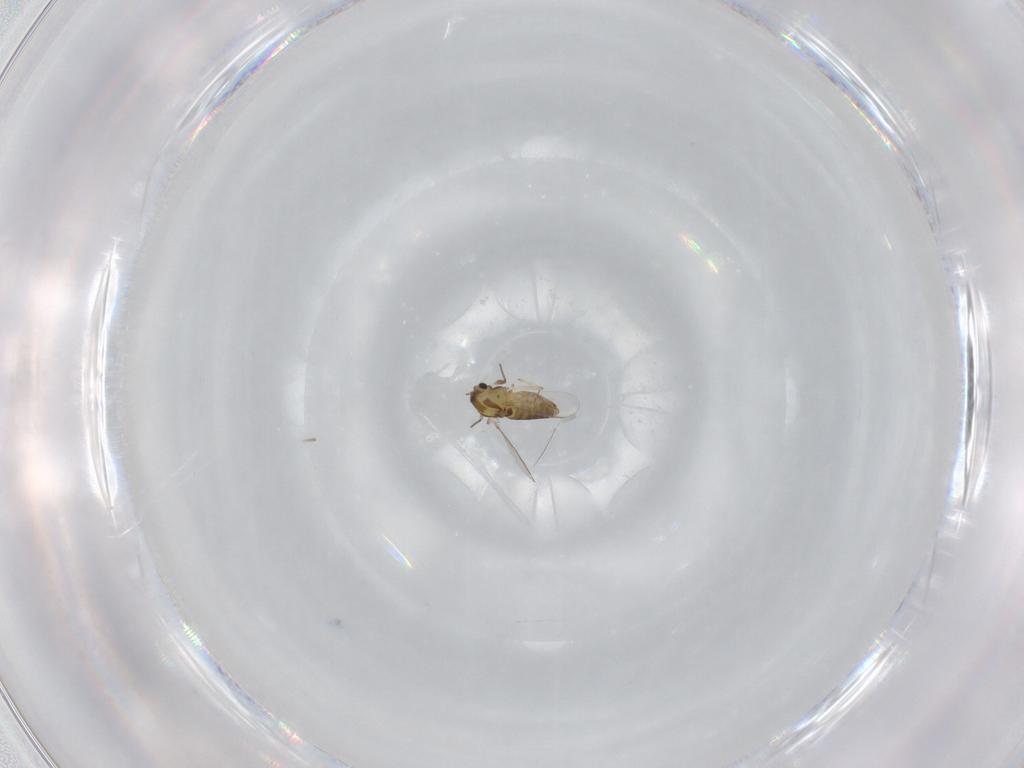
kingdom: Animalia
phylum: Arthropoda
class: Insecta
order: Diptera
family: Chironomidae
